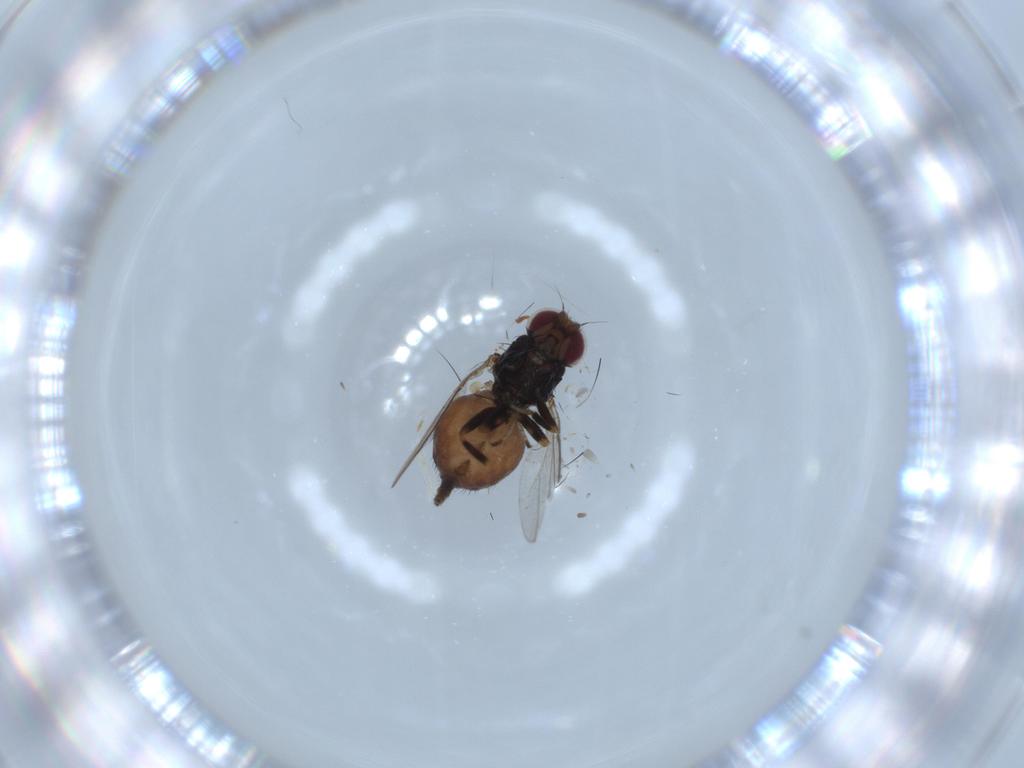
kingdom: Animalia
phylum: Arthropoda
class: Insecta
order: Diptera
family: Chloropidae
